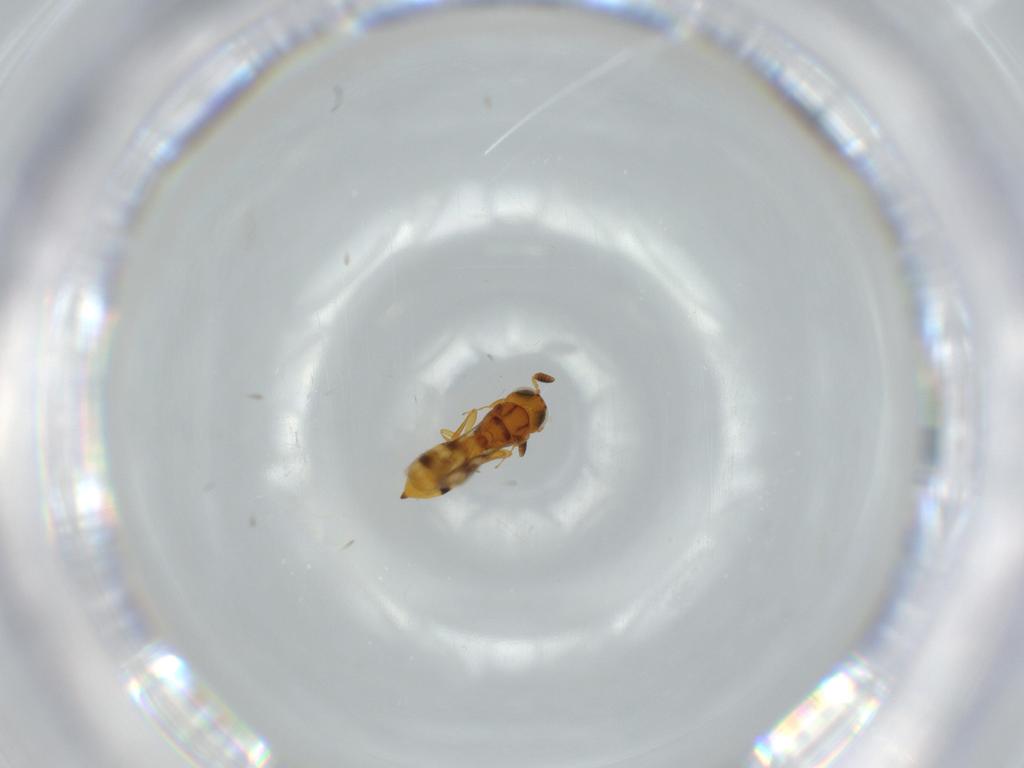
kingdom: Animalia
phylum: Arthropoda
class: Insecta
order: Hymenoptera
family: Scelionidae
